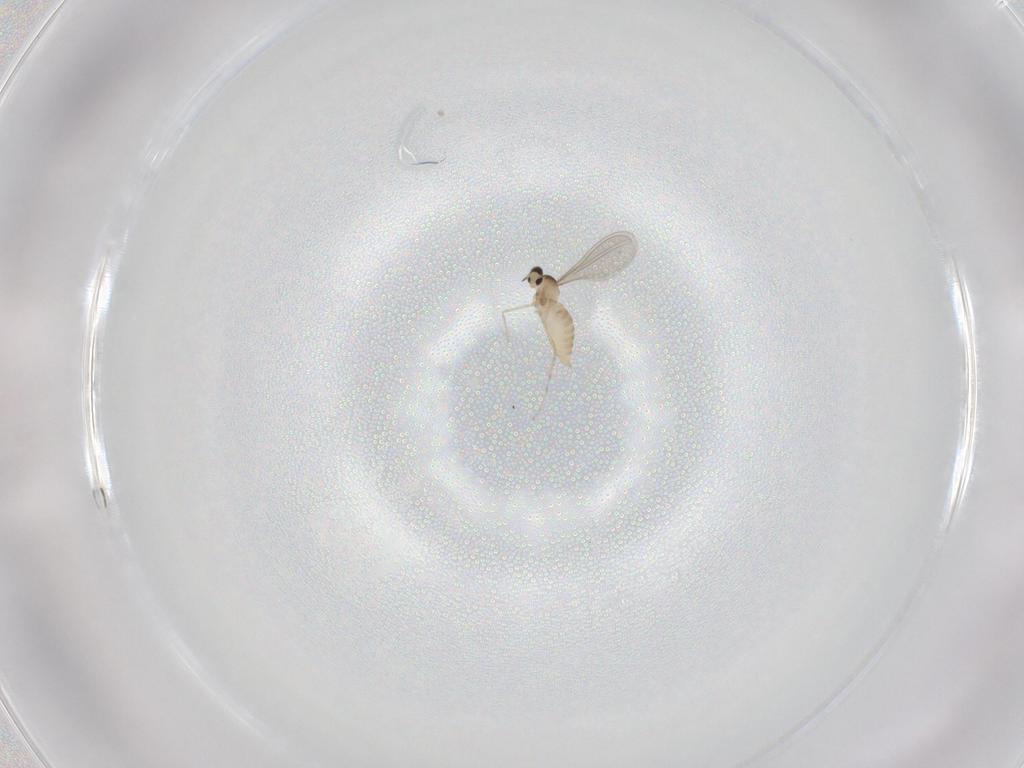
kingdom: Animalia
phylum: Arthropoda
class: Insecta
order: Diptera
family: Cecidomyiidae
